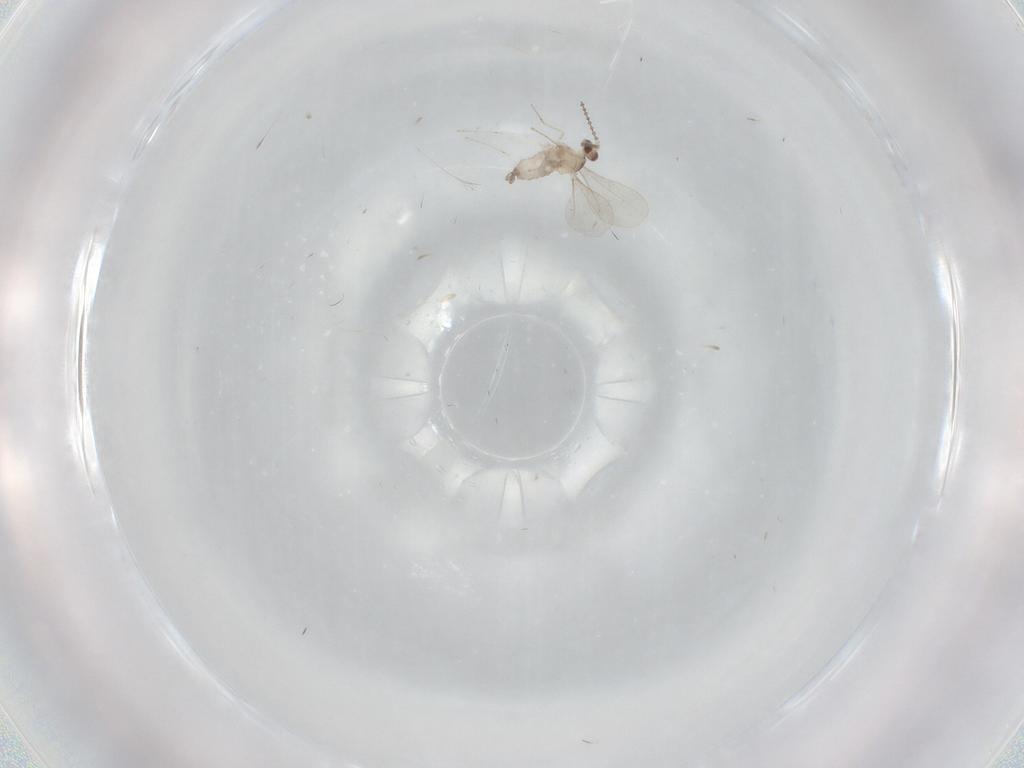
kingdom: Animalia
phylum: Arthropoda
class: Insecta
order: Diptera
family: Cecidomyiidae
